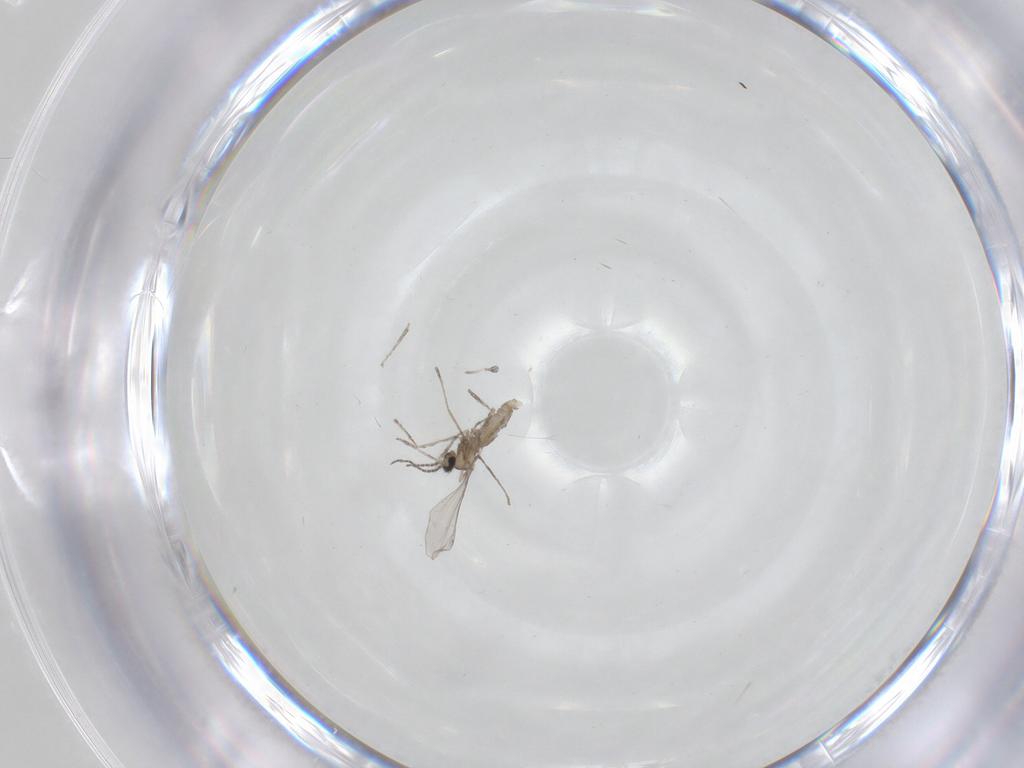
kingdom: Animalia
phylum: Arthropoda
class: Insecta
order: Diptera
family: Cecidomyiidae
